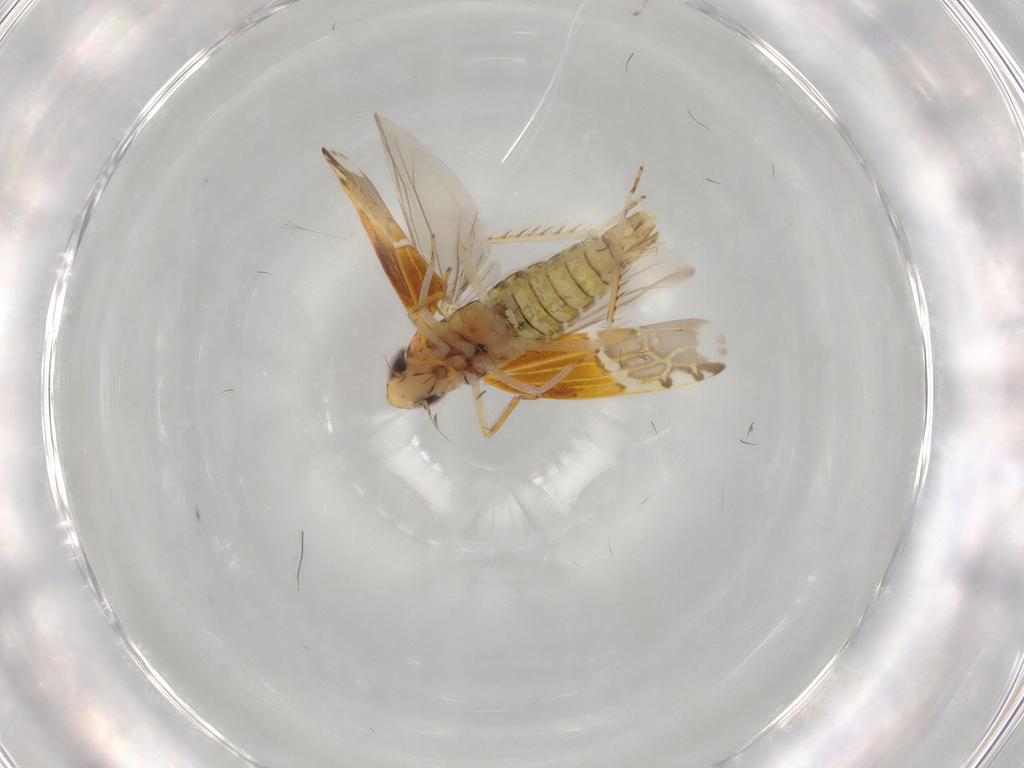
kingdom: Animalia
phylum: Arthropoda
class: Insecta
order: Hemiptera
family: Cicadellidae
